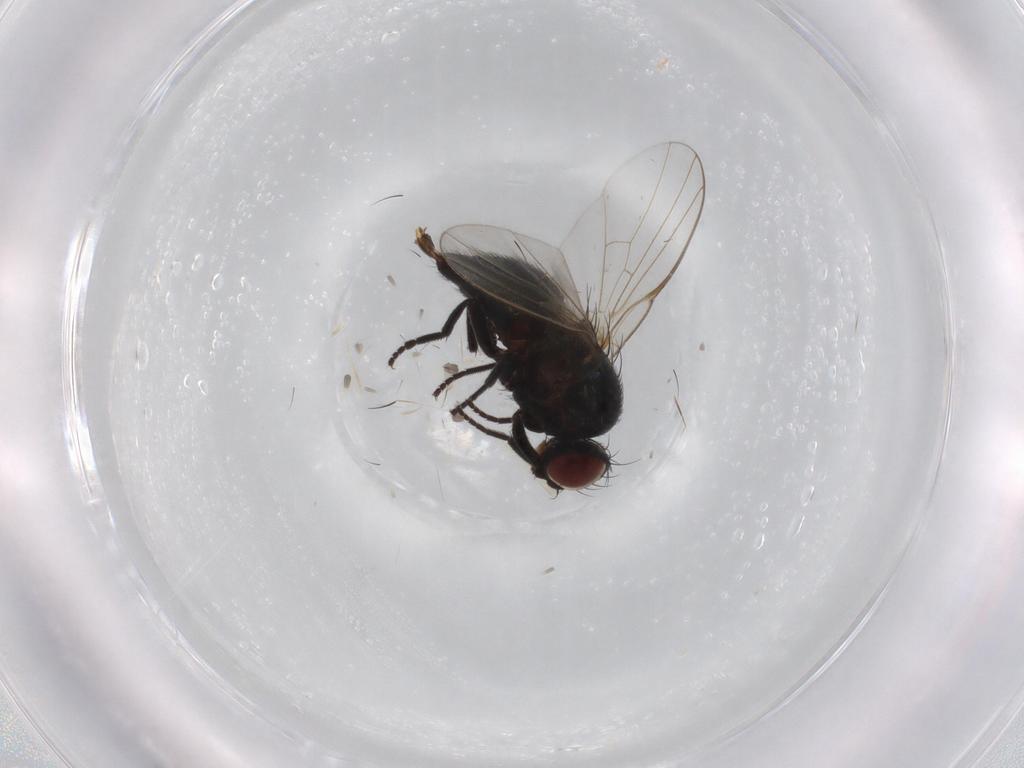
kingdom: Animalia
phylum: Arthropoda
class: Insecta
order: Diptera
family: Agromyzidae
